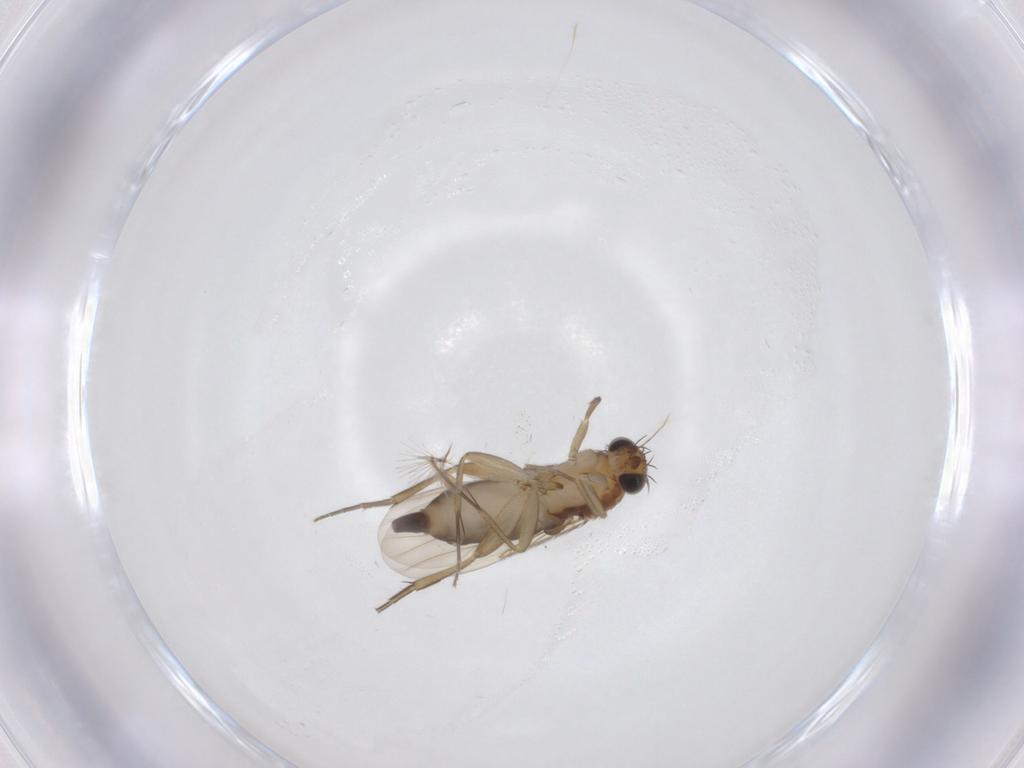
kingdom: Animalia
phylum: Arthropoda
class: Insecta
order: Diptera
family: Phoridae
